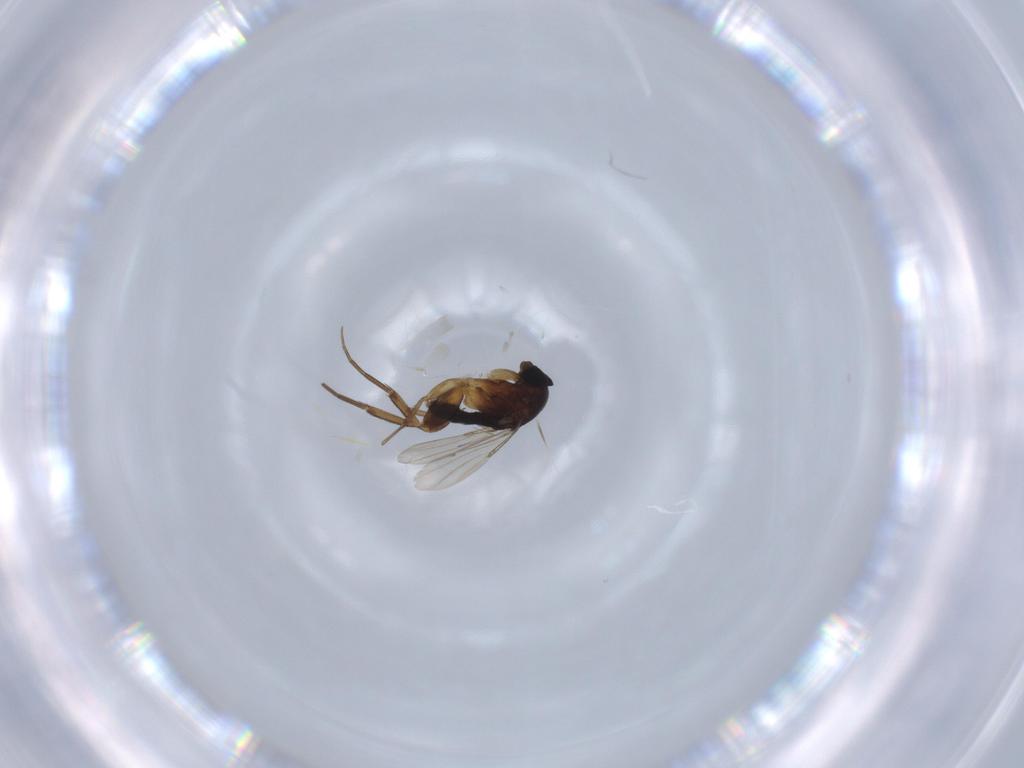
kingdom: Animalia
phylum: Arthropoda
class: Insecta
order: Diptera
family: Phoridae
